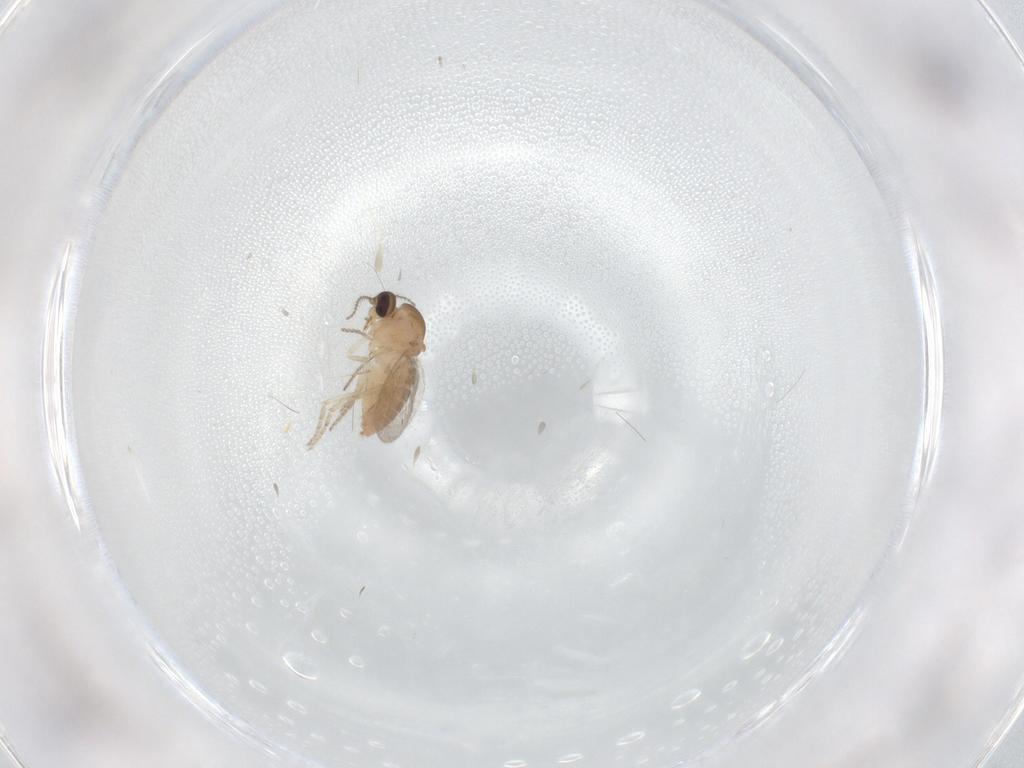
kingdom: Animalia
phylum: Arthropoda
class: Insecta
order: Diptera
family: Ceratopogonidae
